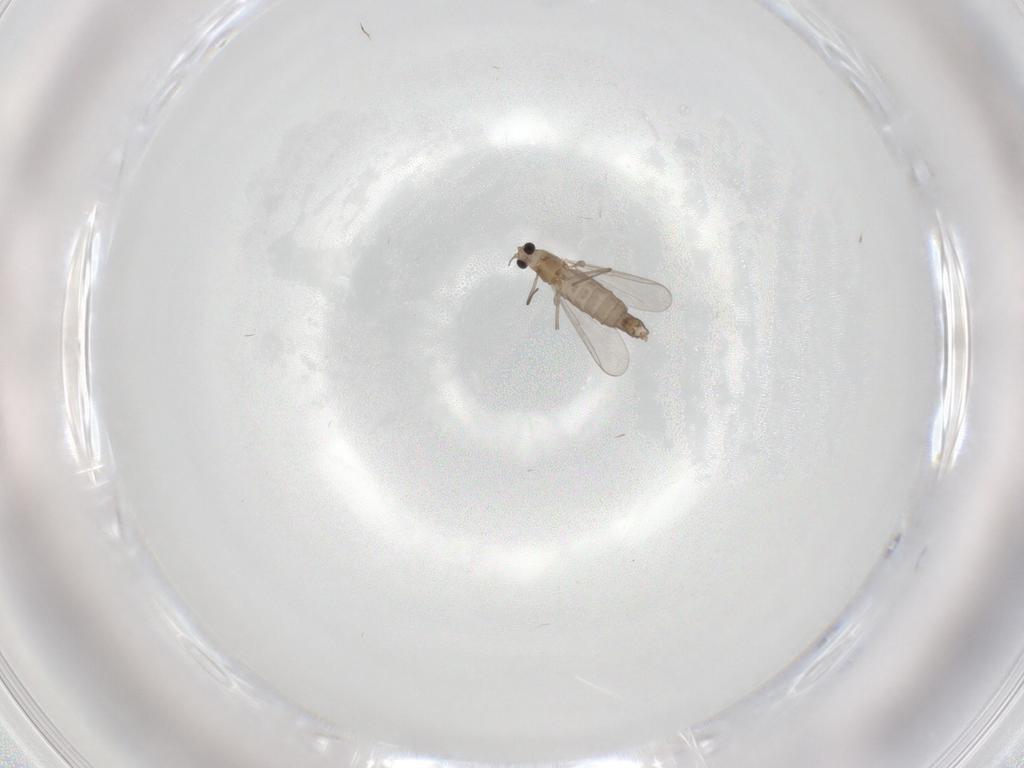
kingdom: Animalia
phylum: Arthropoda
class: Insecta
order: Diptera
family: Chironomidae
